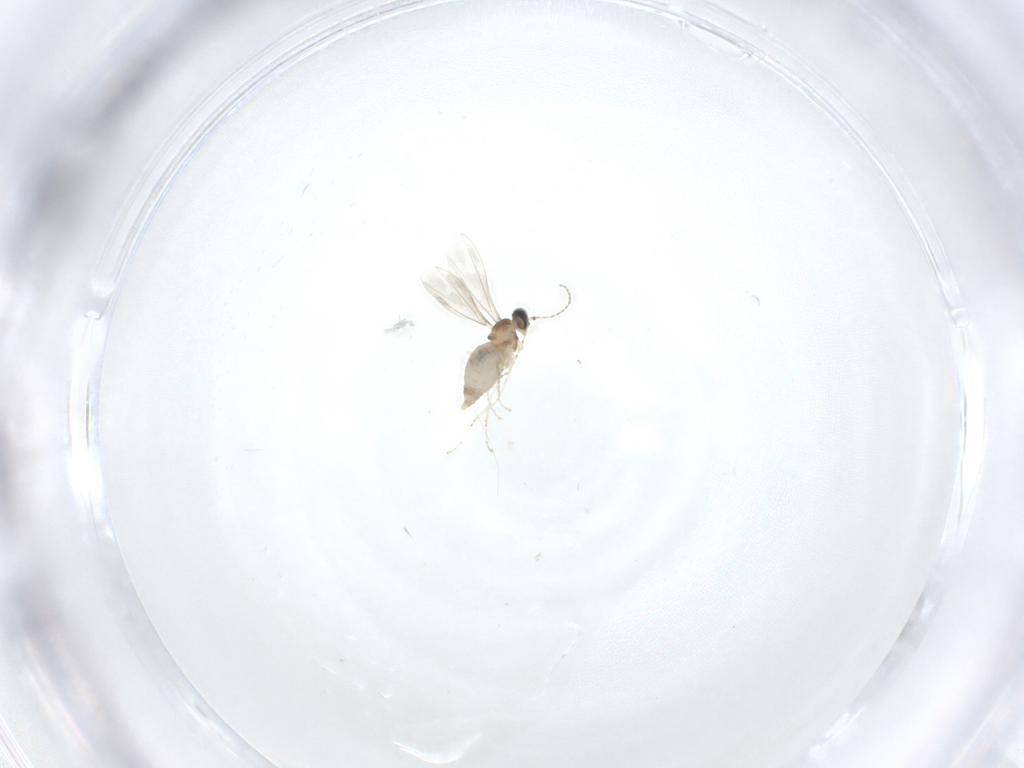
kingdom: Animalia
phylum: Arthropoda
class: Insecta
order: Diptera
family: Cecidomyiidae
